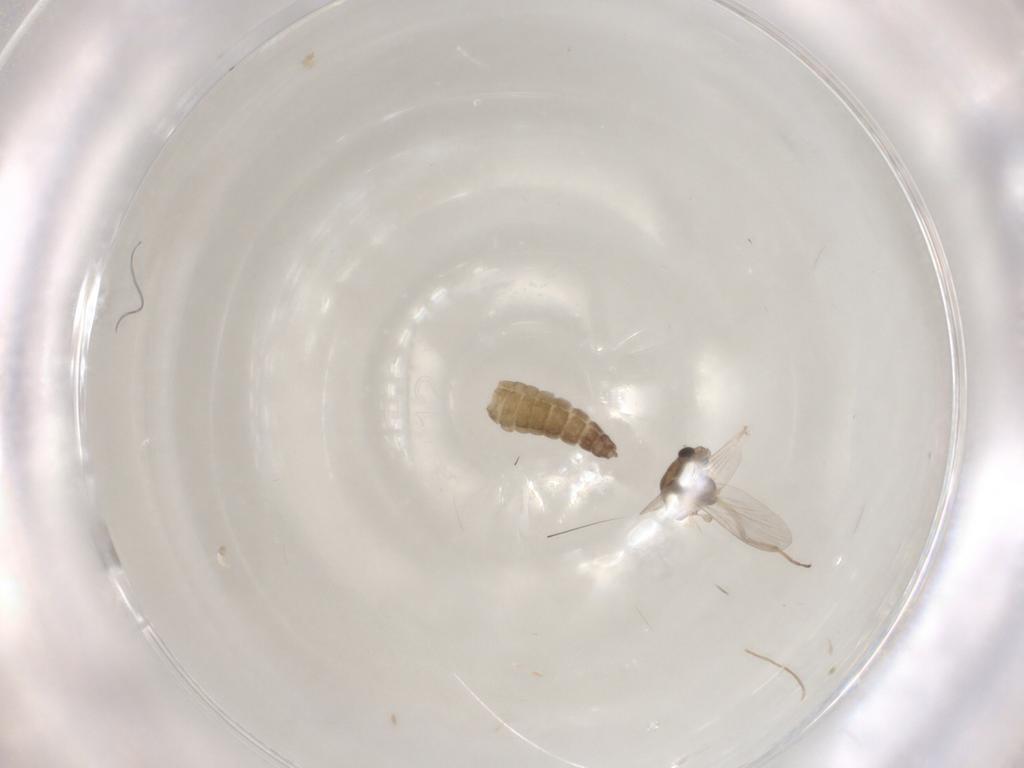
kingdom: Animalia
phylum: Arthropoda
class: Insecta
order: Diptera
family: Chironomidae
